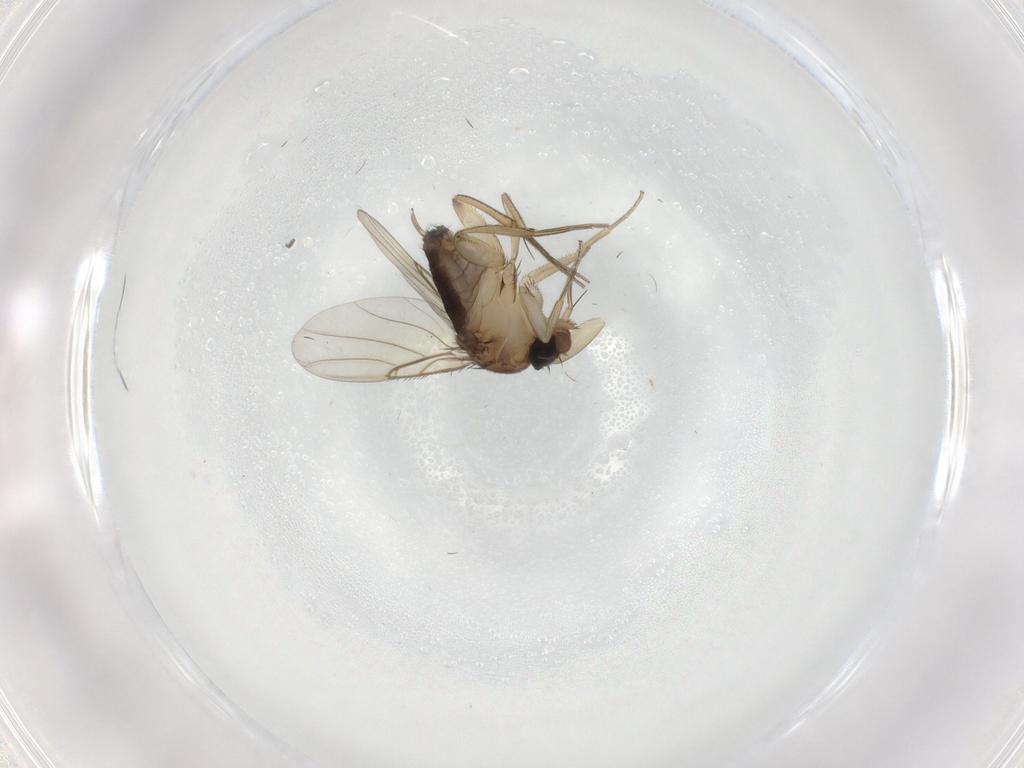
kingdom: Animalia
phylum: Arthropoda
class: Insecta
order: Diptera
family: Phoridae
